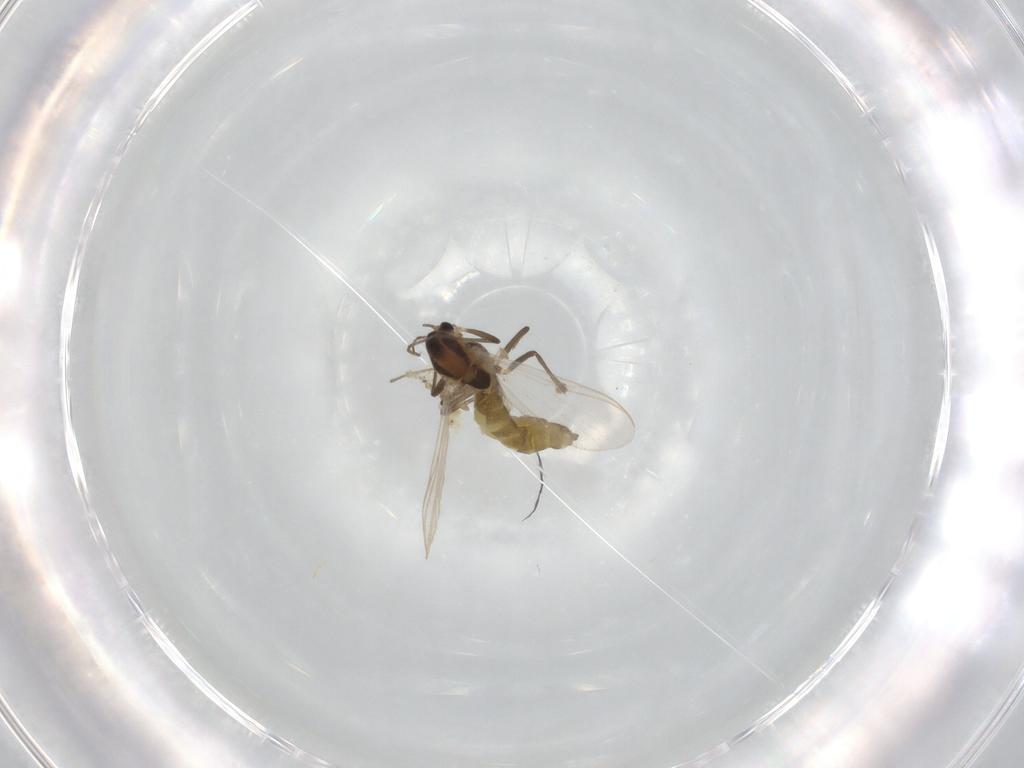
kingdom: Animalia
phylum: Arthropoda
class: Insecta
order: Diptera
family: Chironomidae
